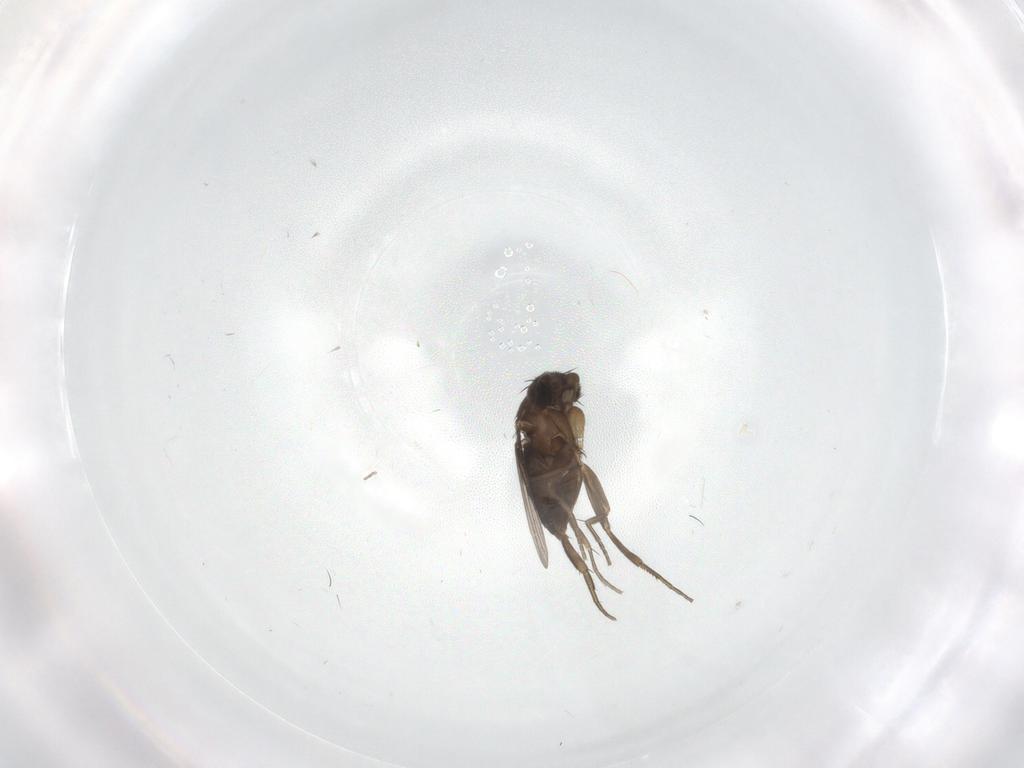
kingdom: Animalia
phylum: Arthropoda
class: Insecta
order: Diptera
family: Phoridae
